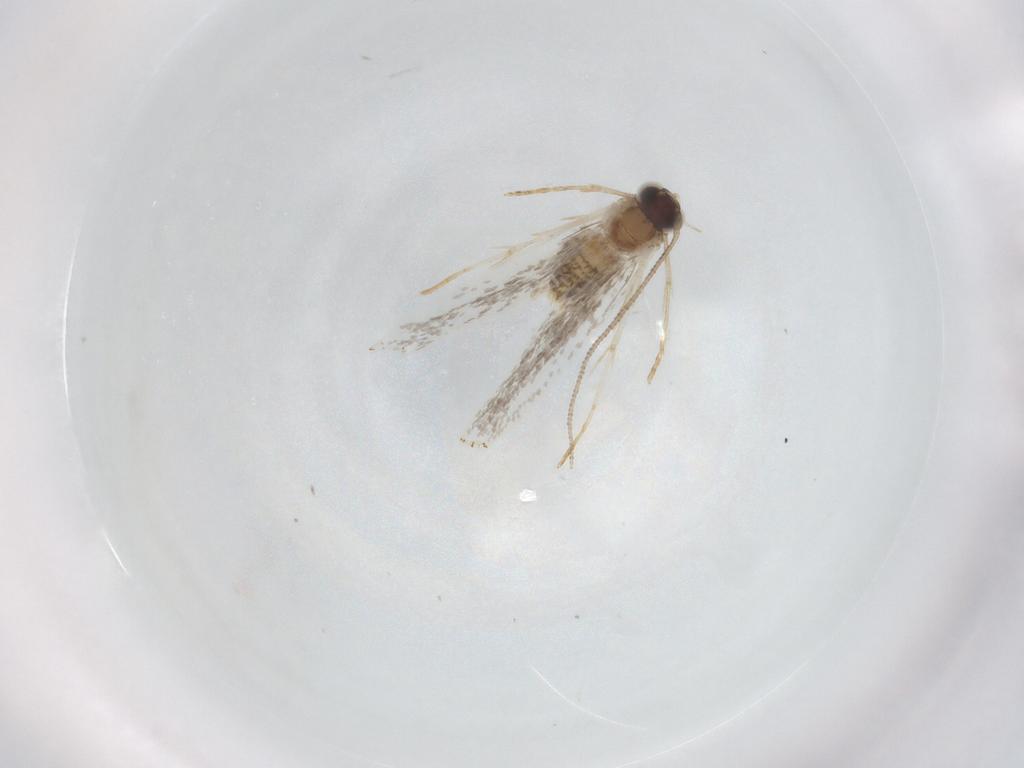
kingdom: Animalia
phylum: Arthropoda
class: Insecta
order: Lepidoptera
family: Tineidae
